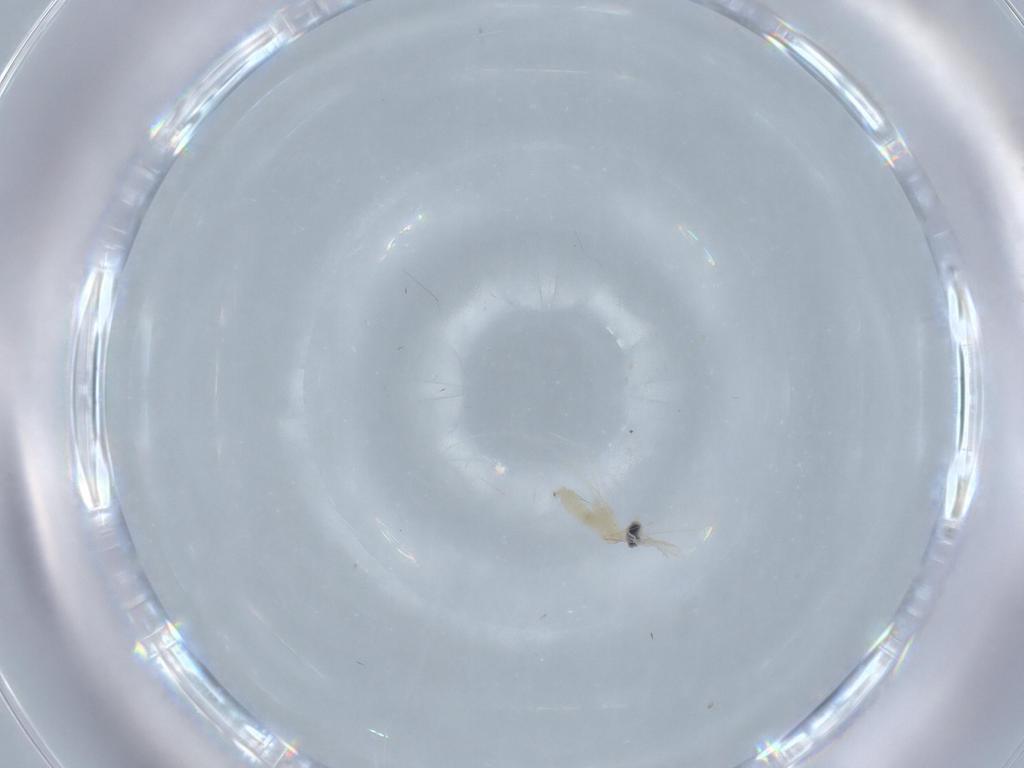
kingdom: Animalia
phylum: Arthropoda
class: Insecta
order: Diptera
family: Cecidomyiidae
